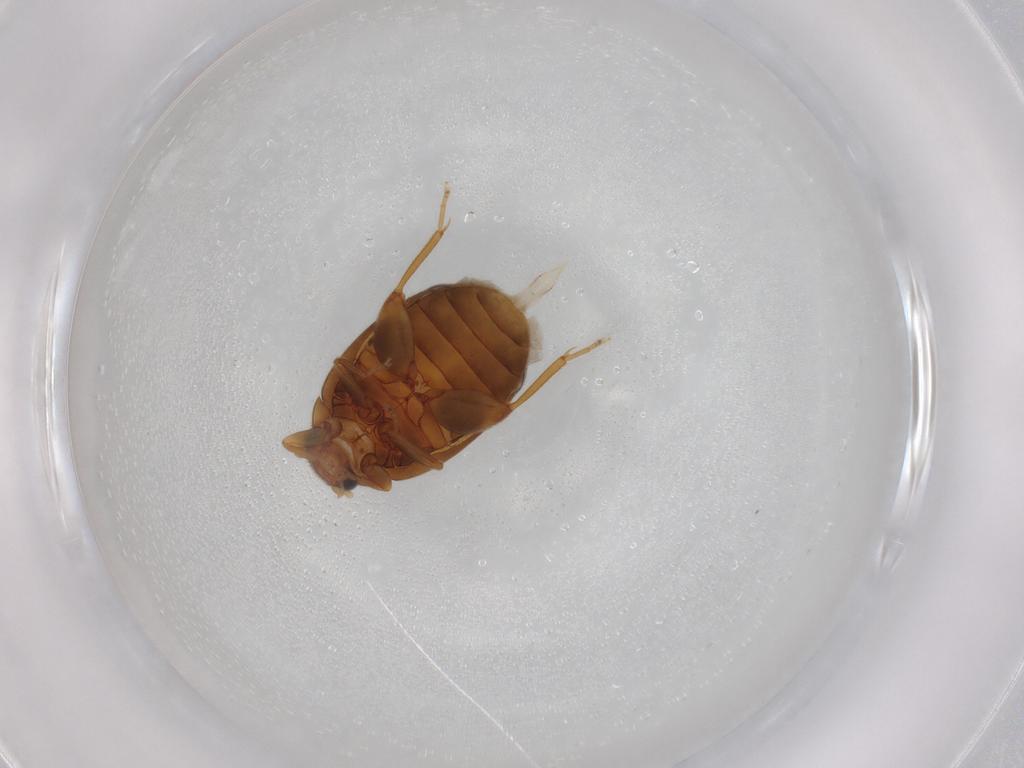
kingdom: Animalia
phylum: Arthropoda
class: Insecta
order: Coleoptera
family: Scirtidae
